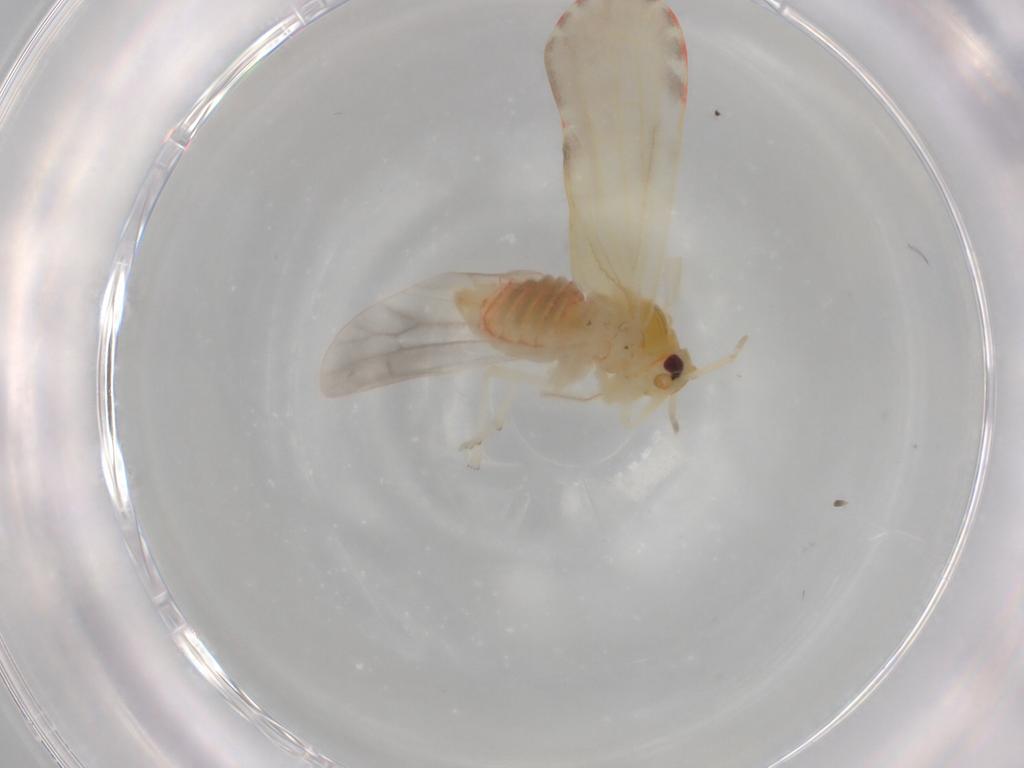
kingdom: Animalia
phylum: Arthropoda
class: Insecta
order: Hemiptera
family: Derbidae
